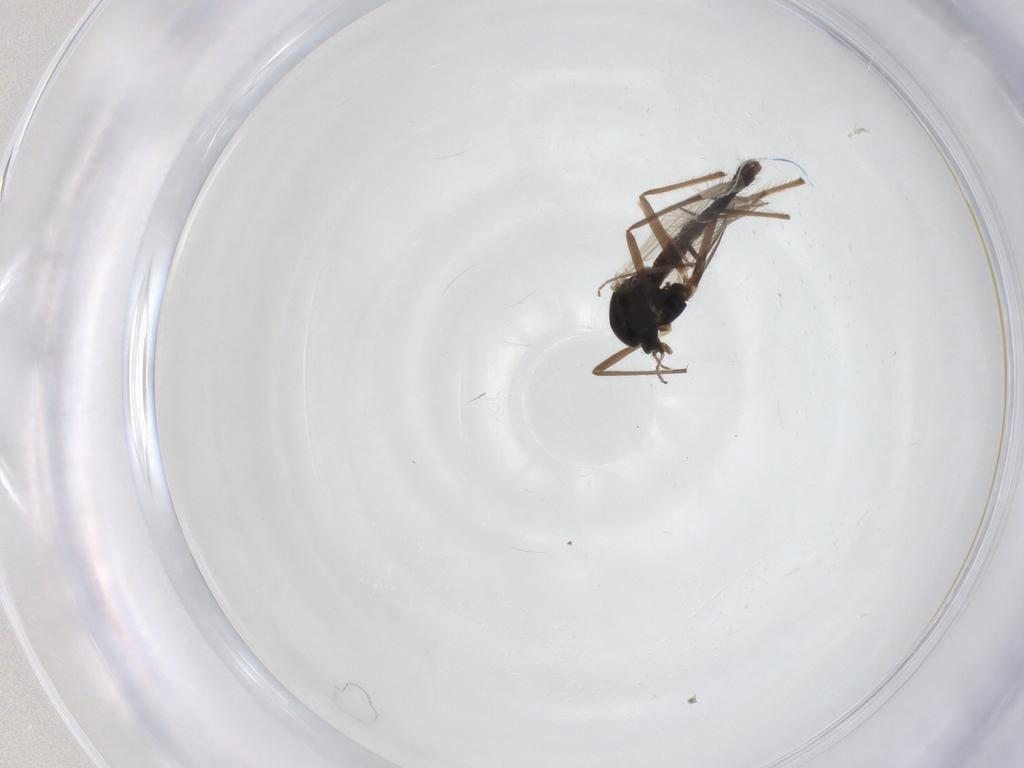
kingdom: Animalia
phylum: Arthropoda
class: Insecta
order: Diptera
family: Chironomidae
